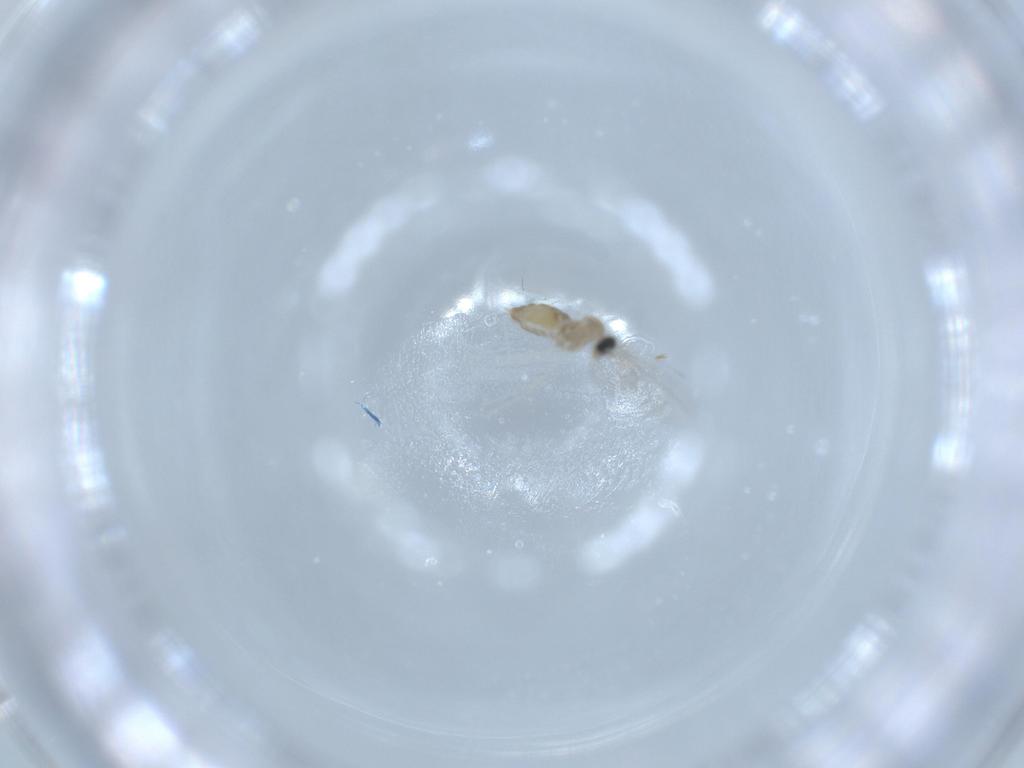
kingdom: Animalia
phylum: Arthropoda
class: Insecta
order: Diptera
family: Cecidomyiidae
